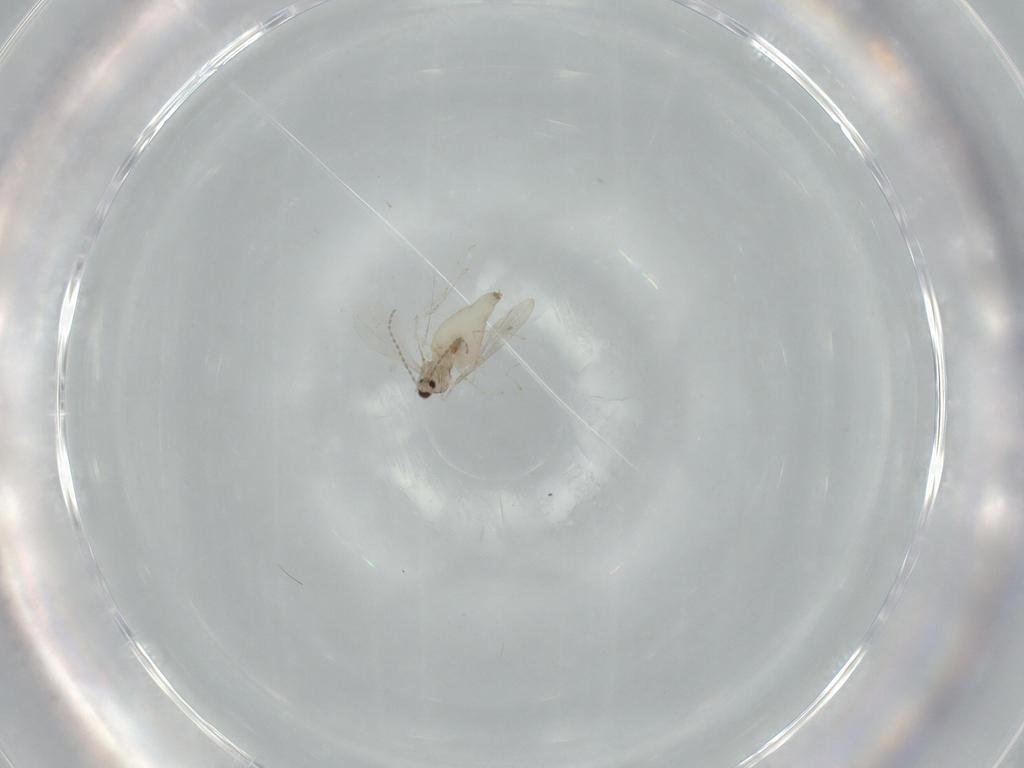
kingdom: Animalia
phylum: Arthropoda
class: Insecta
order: Diptera
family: Cecidomyiidae
